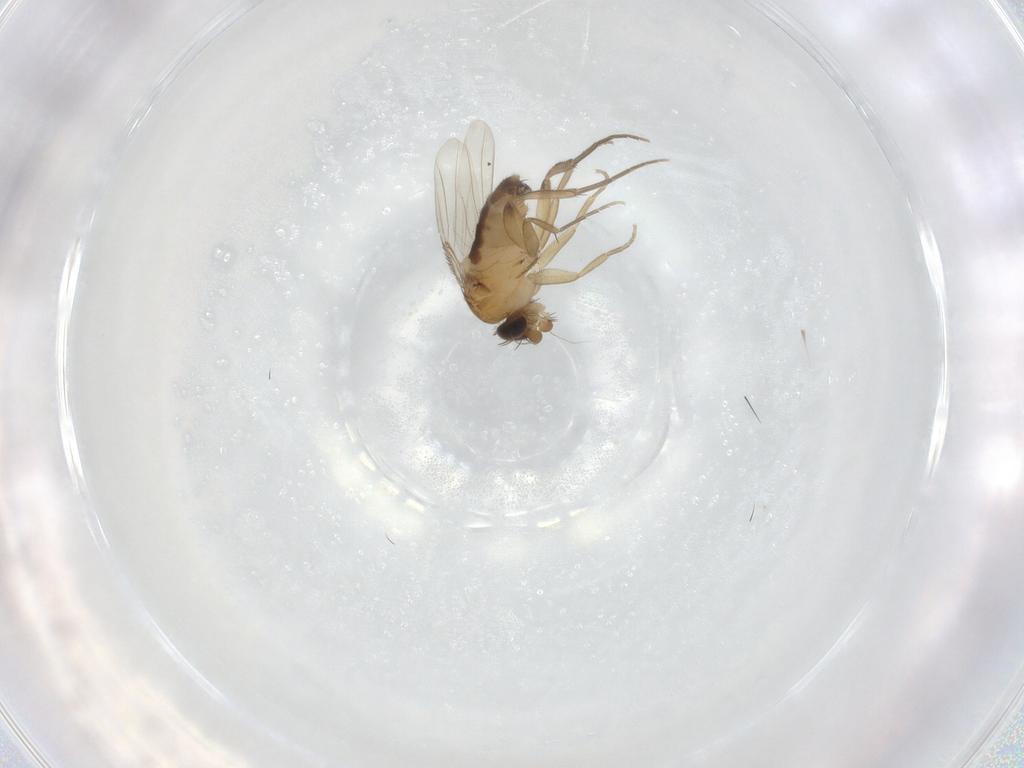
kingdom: Animalia
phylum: Arthropoda
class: Insecta
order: Diptera
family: Phoridae
